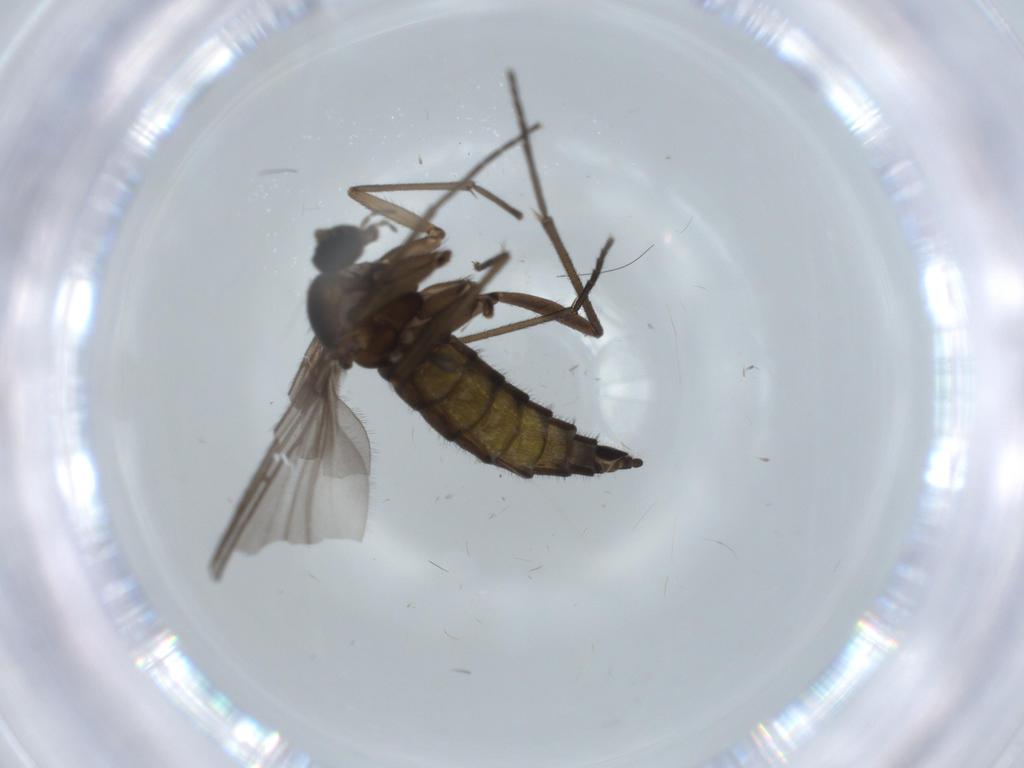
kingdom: Animalia
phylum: Arthropoda
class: Insecta
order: Diptera
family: Sciaridae
